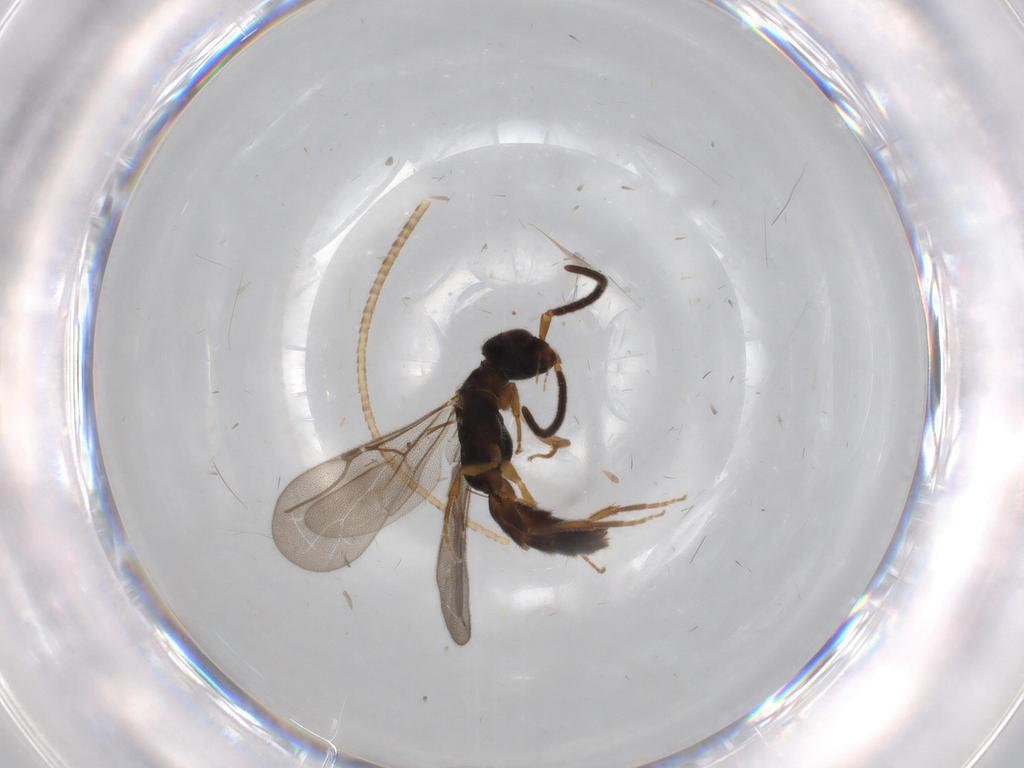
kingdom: Animalia
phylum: Arthropoda
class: Insecta
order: Hymenoptera
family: Bethylidae
